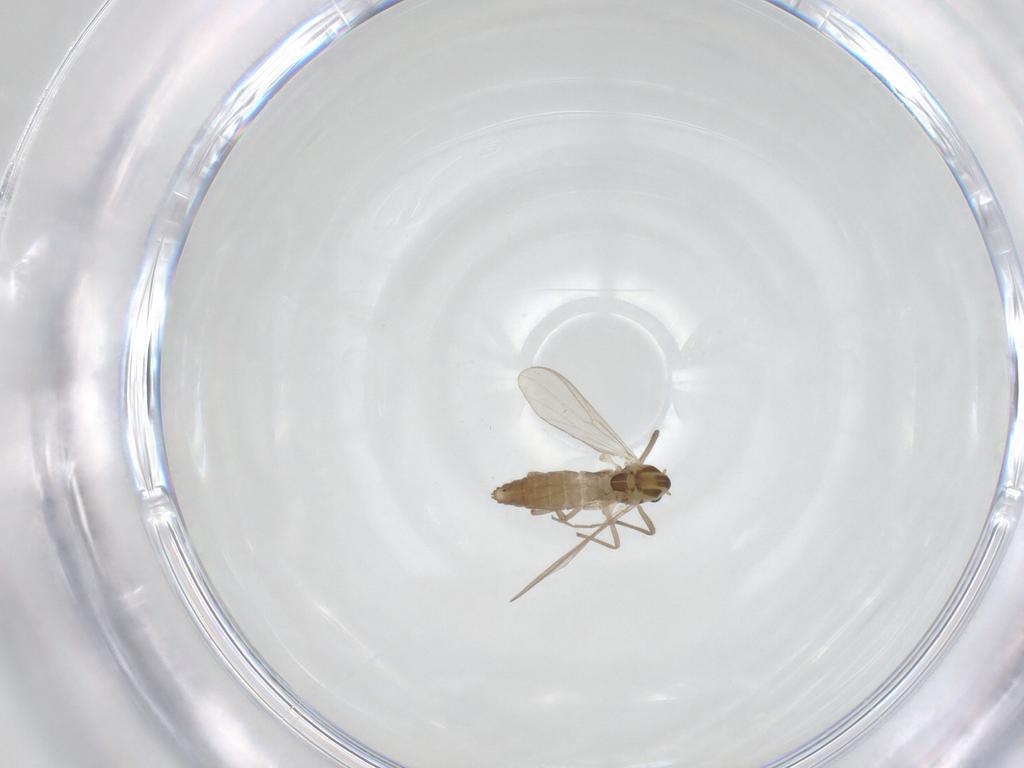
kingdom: Animalia
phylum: Arthropoda
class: Insecta
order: Diptera
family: Chironomidae
